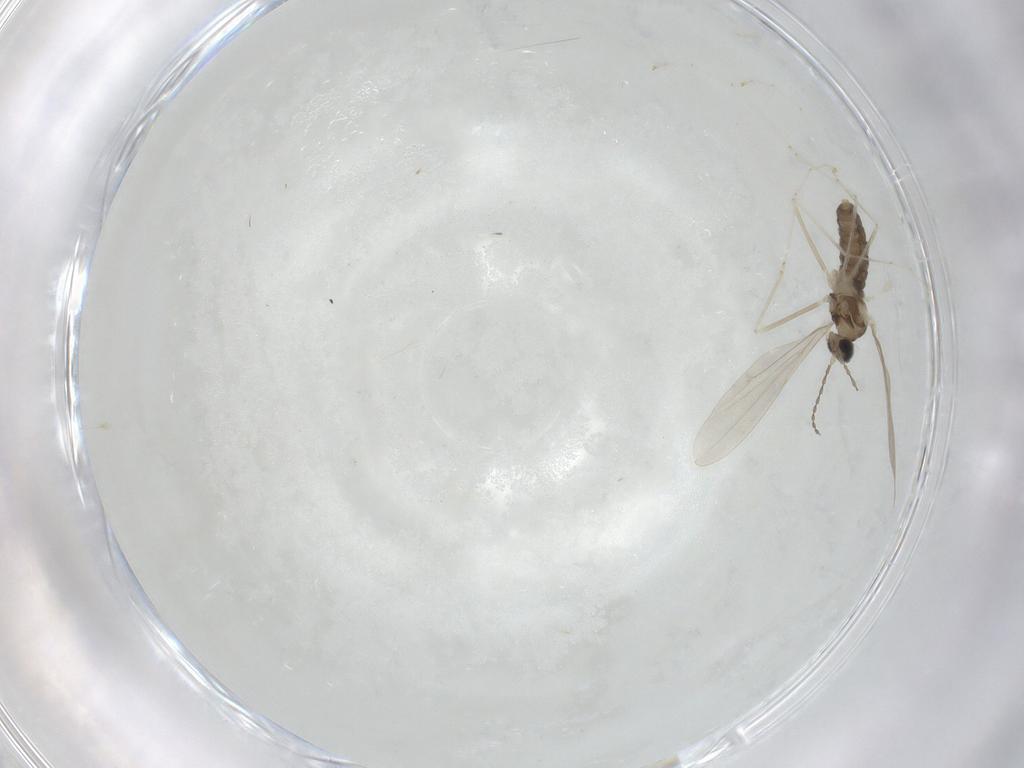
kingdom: Animalia
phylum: Arthropoda
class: Insecta
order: Diptera
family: Cecidomyiidae
